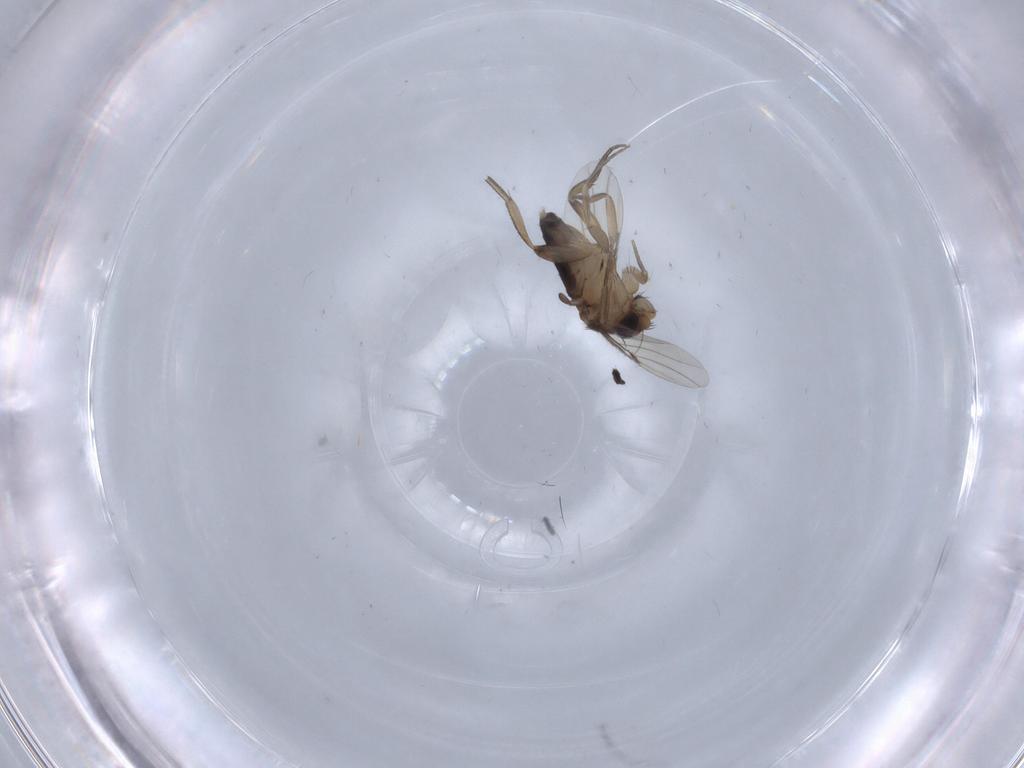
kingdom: Animalia
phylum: Arthropoda
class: Insecta
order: Diptera
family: Phoridae
